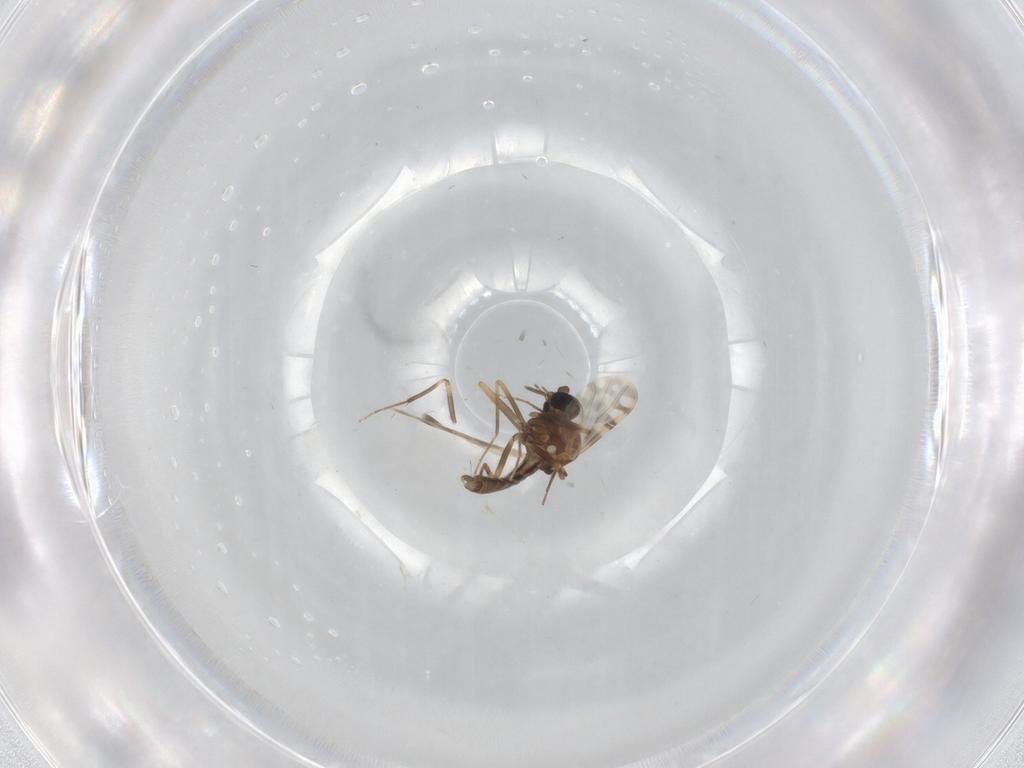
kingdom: Animalia
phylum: Arthropoda
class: Insecta
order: Diptera
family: Ceratopogonidae
